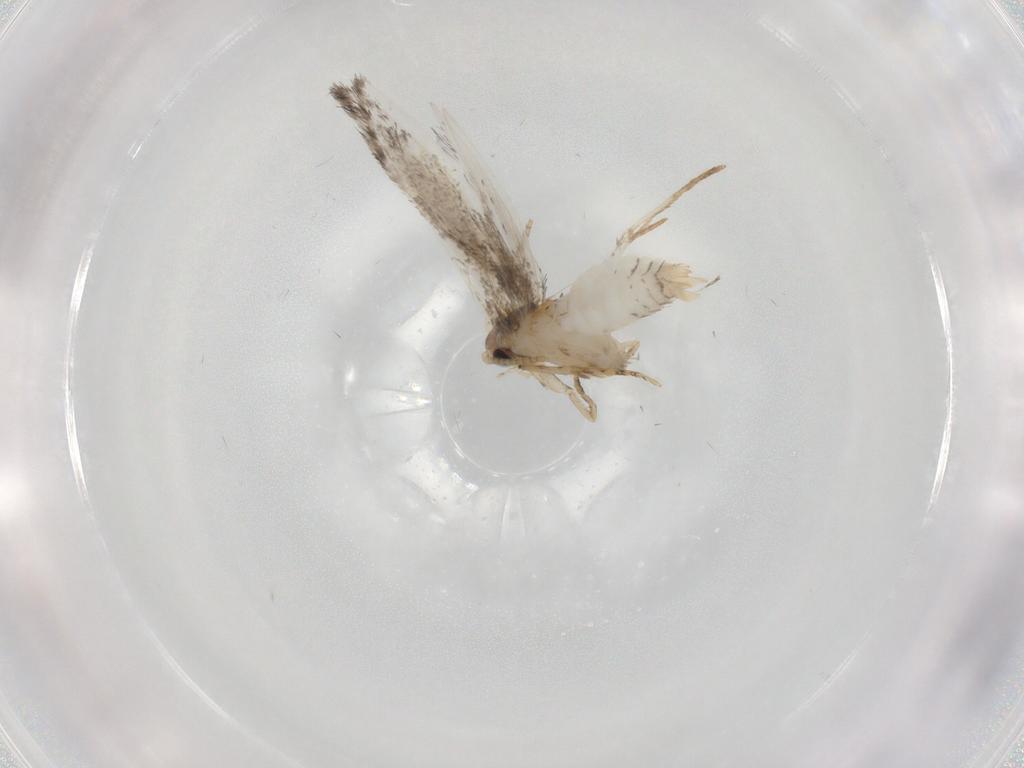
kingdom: Animalia
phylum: Arthropoda
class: Insecta
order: Lepidoptera
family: Tineidae
